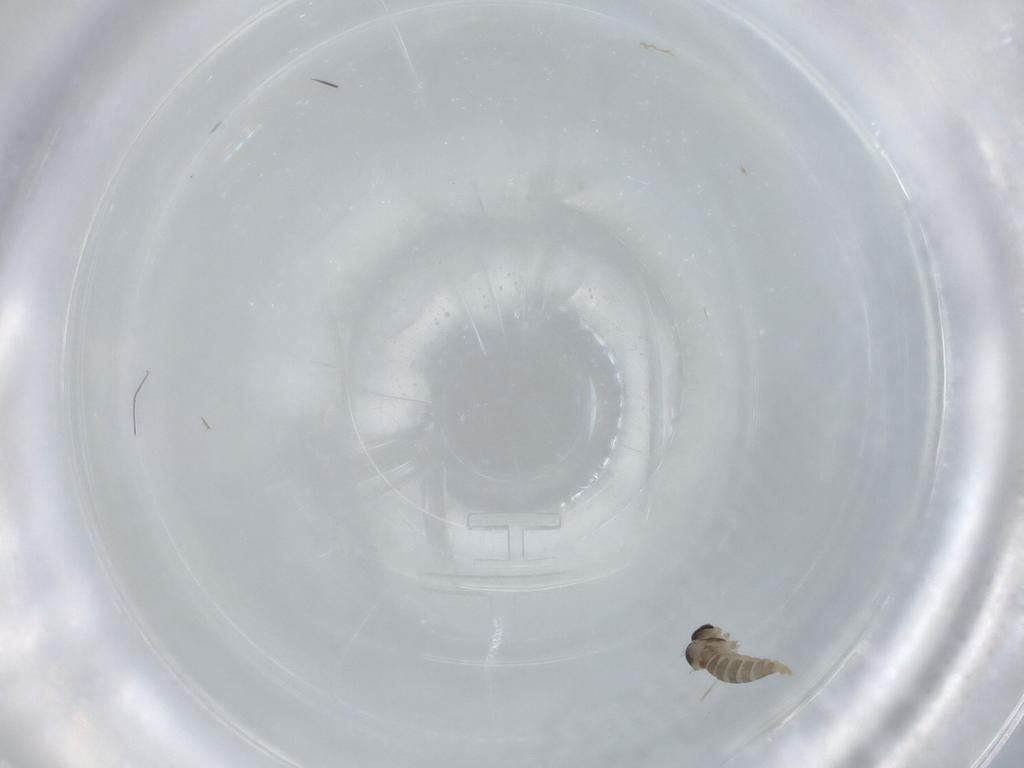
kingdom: Animalia
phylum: Arthropoda
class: Insecta
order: Diptera
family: Cecidomyiidae
